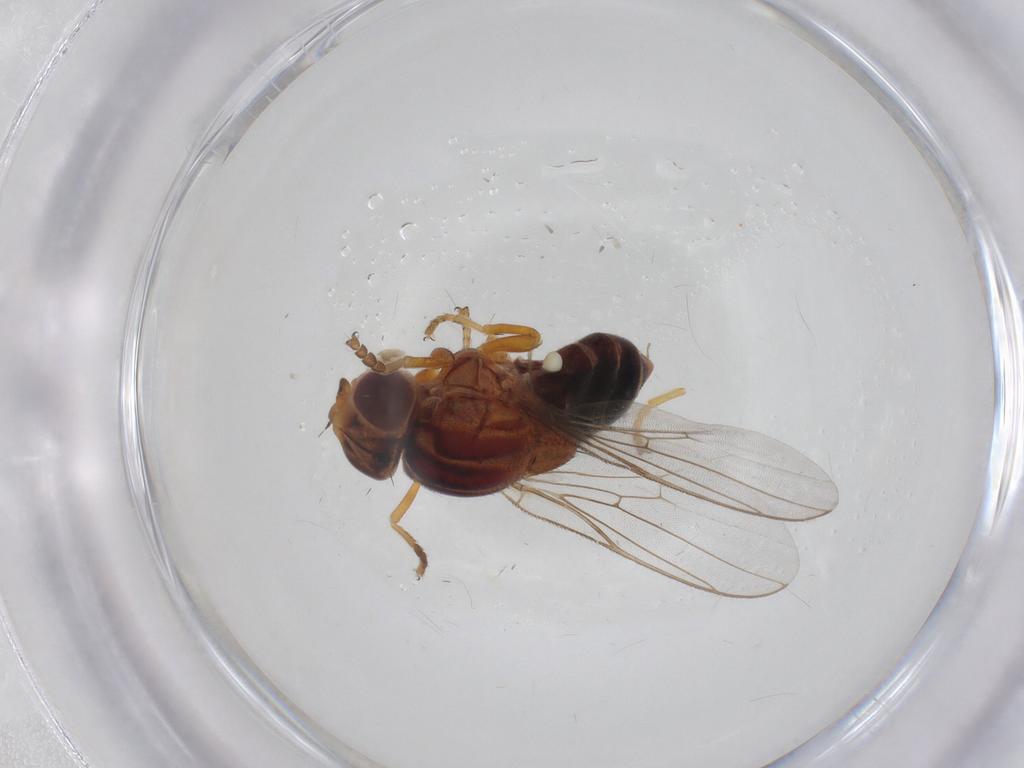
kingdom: Animalia
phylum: Arthropoda
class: Insecta
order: Diptera
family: Chloropidae
